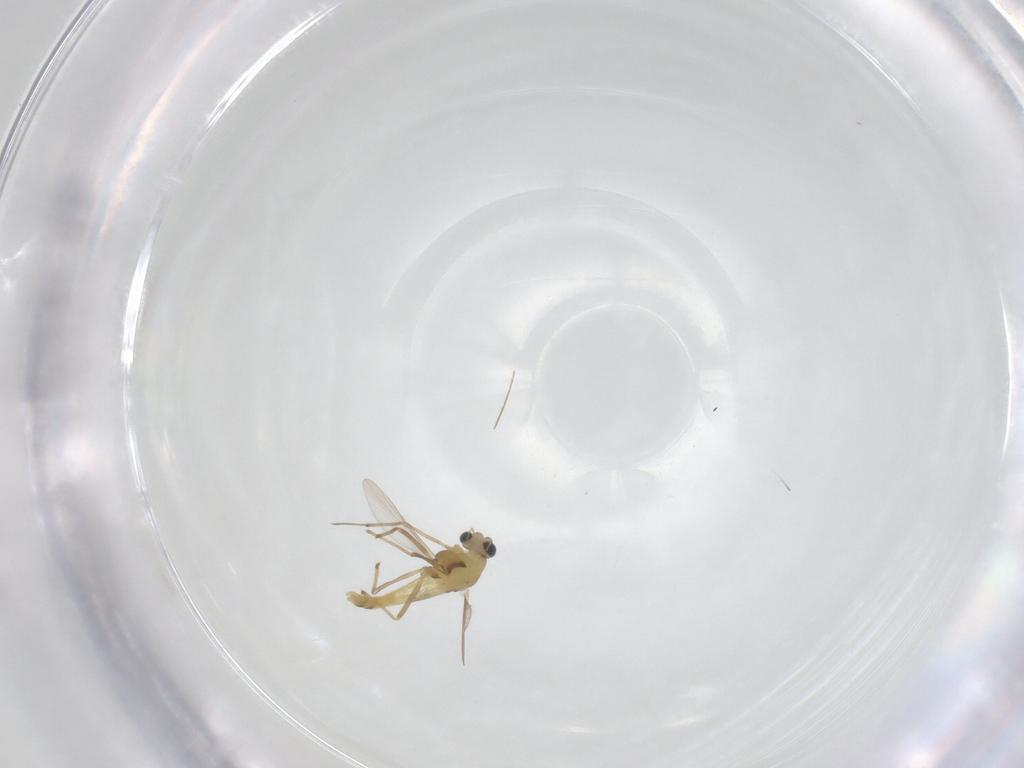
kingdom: Animalia
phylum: Arthropoda
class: Insecta
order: Diptera
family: Chironomidae
